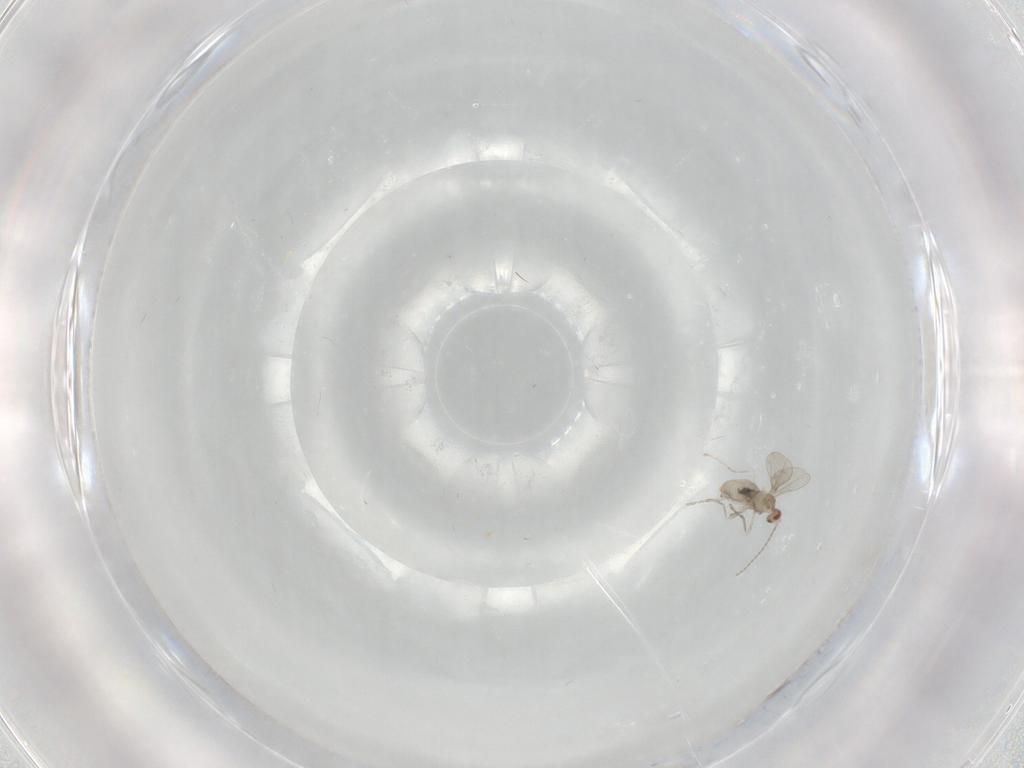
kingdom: Animalia
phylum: Arthropoda
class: Insecta
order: Diptera
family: Cecidomyiidae
